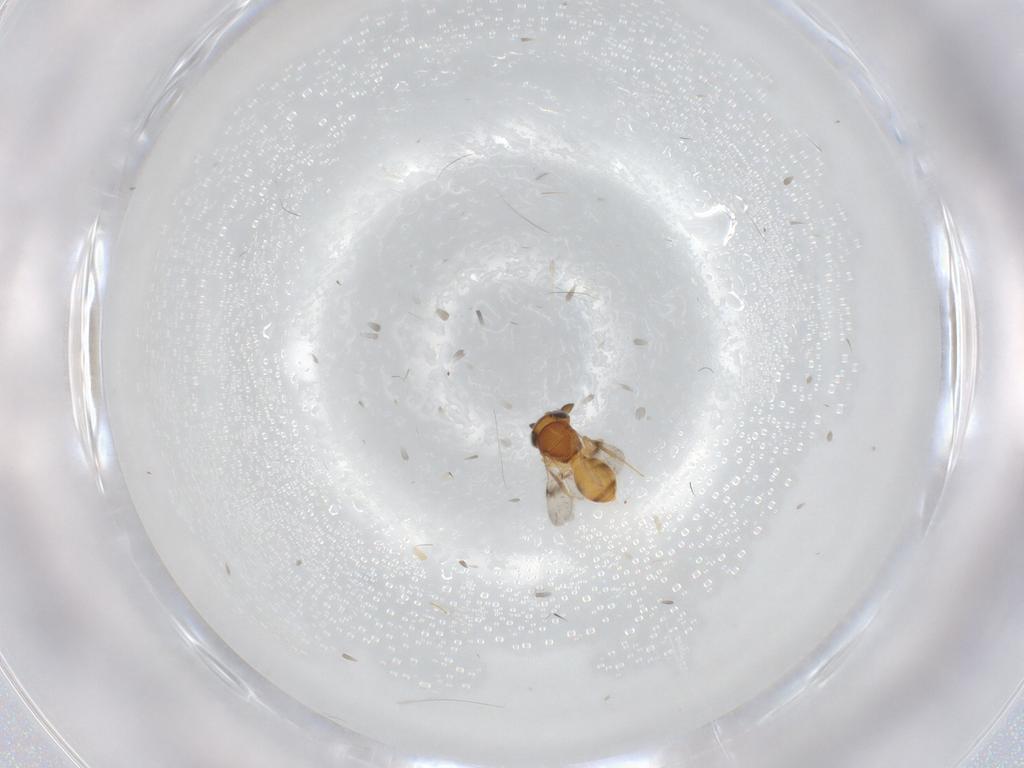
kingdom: Animalia
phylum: Arthropoda
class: Insecta
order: Hymenoptera
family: Scelionidae
